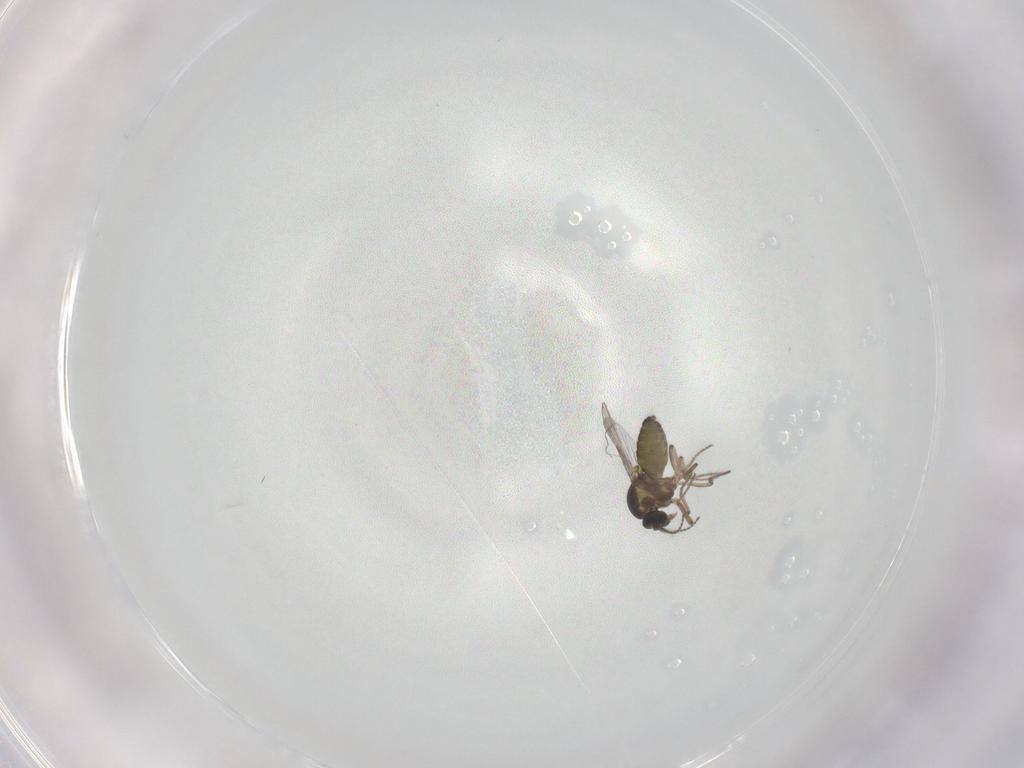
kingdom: Animalia
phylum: Arthropoda
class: Insecta
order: Diptera
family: Ceratopogonidae
